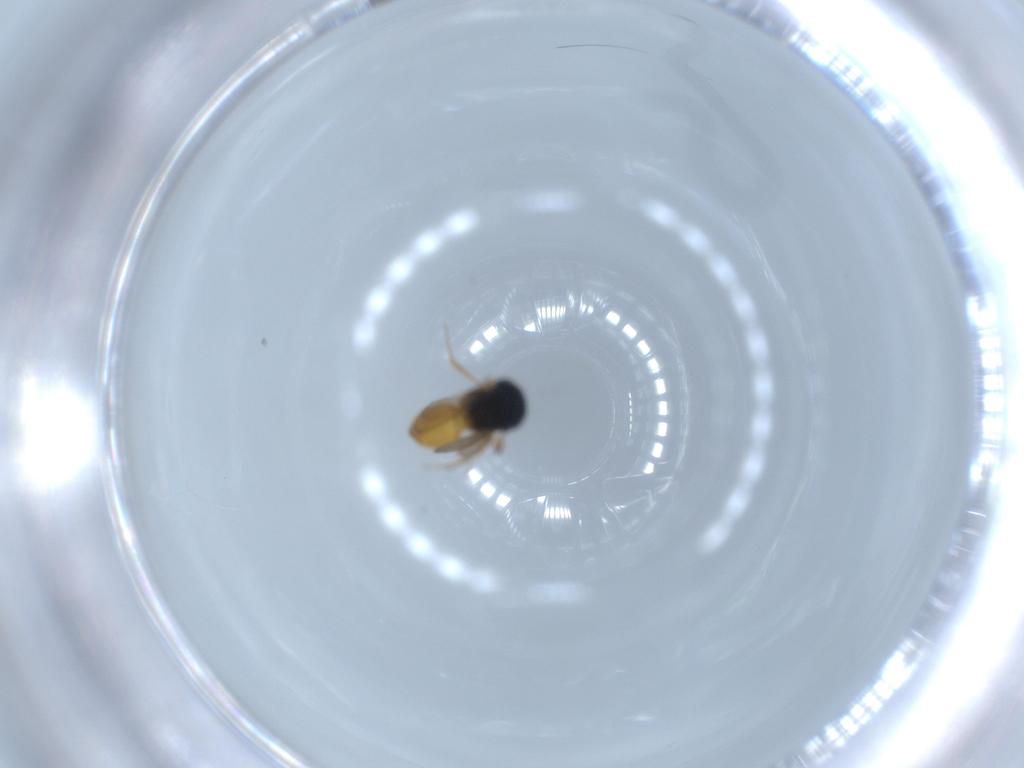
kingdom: Animalia
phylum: Arthropoda
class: Insecta
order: Hymenoptera
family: Scelionidae
